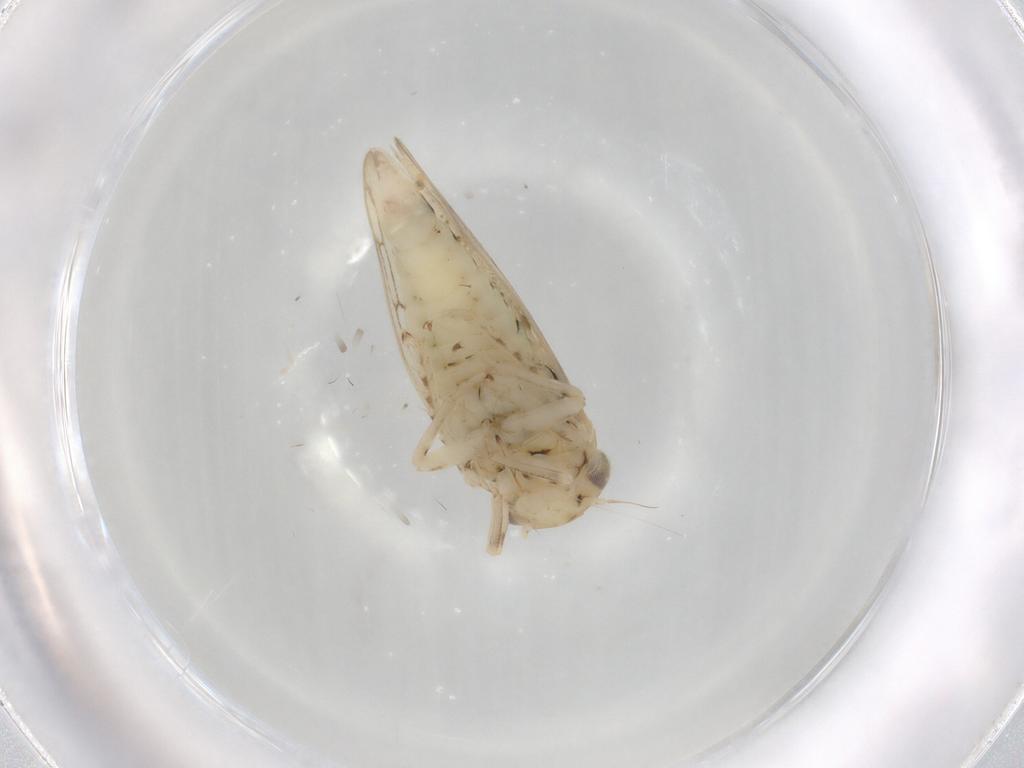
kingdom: Animalia
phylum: Arthropoda
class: Insecta
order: Hemiptera
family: Cicadellidae
